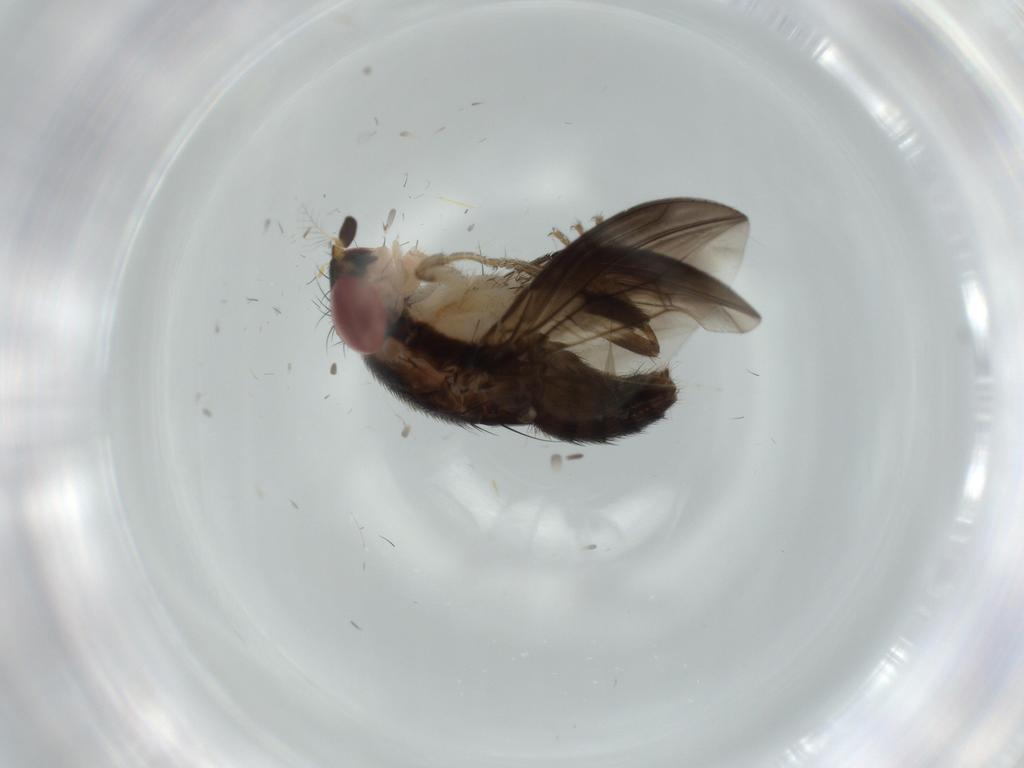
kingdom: Animalia
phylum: Arthropoda
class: Insecta
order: Diptera
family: Drosophilidae
